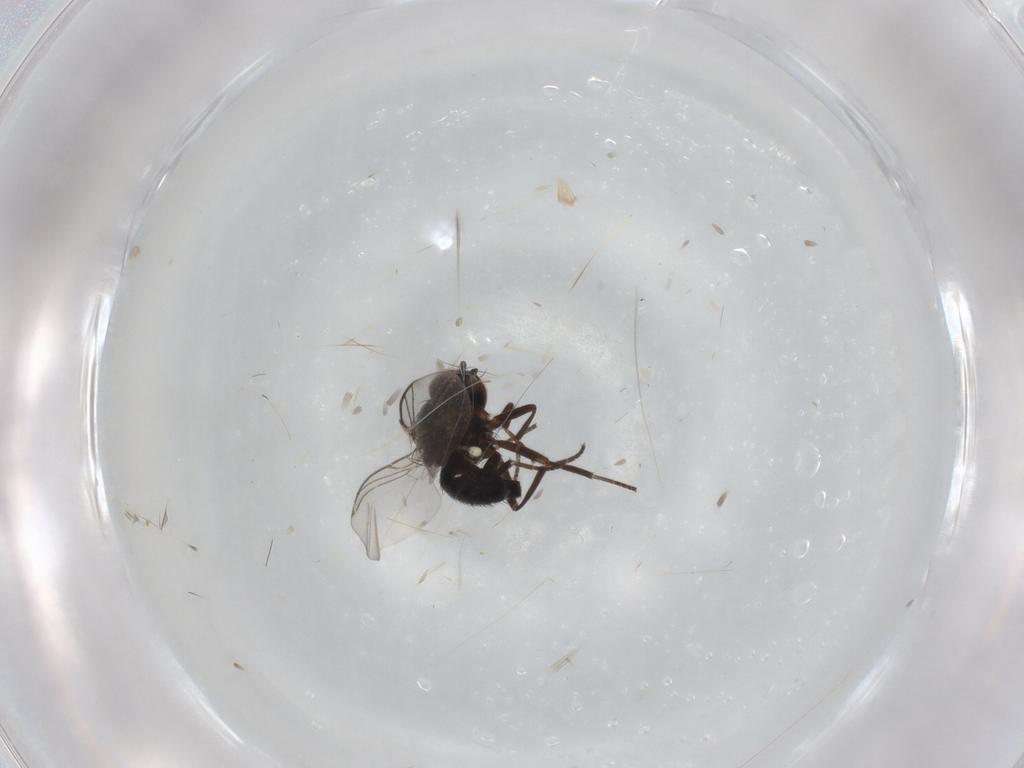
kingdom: Animalia
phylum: Arthropoda
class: Insecta
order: Diptera
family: Agromyzidae
